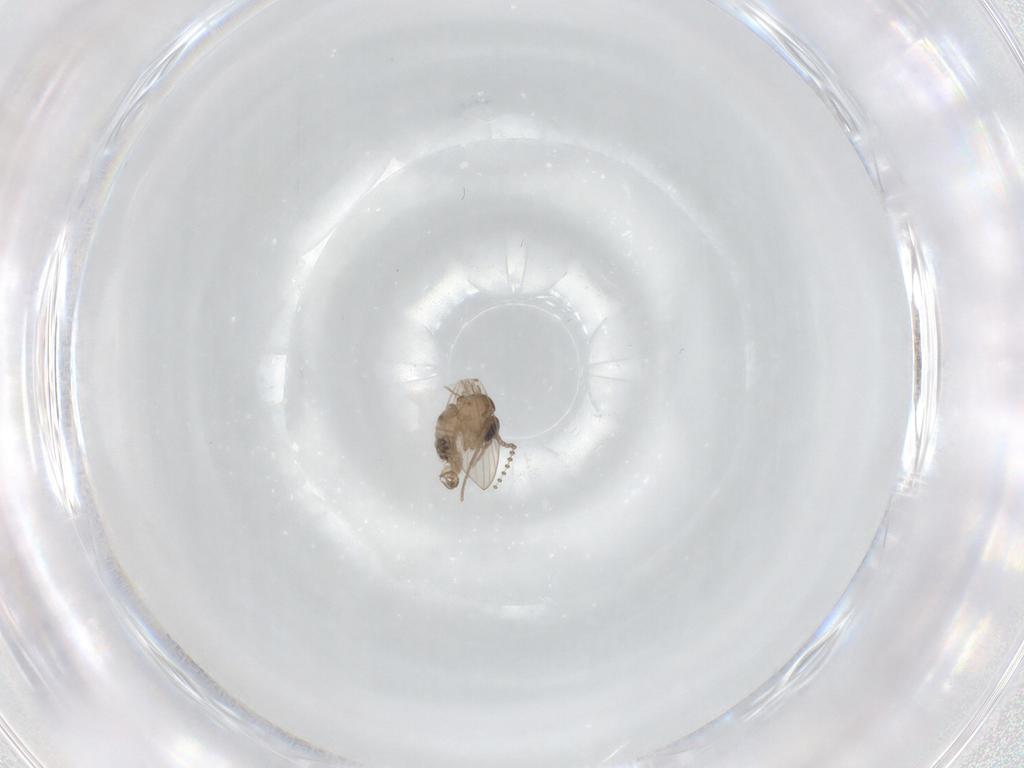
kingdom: Animalia
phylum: Arthropoda
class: Insecta
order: Diptera
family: Psychodidae
